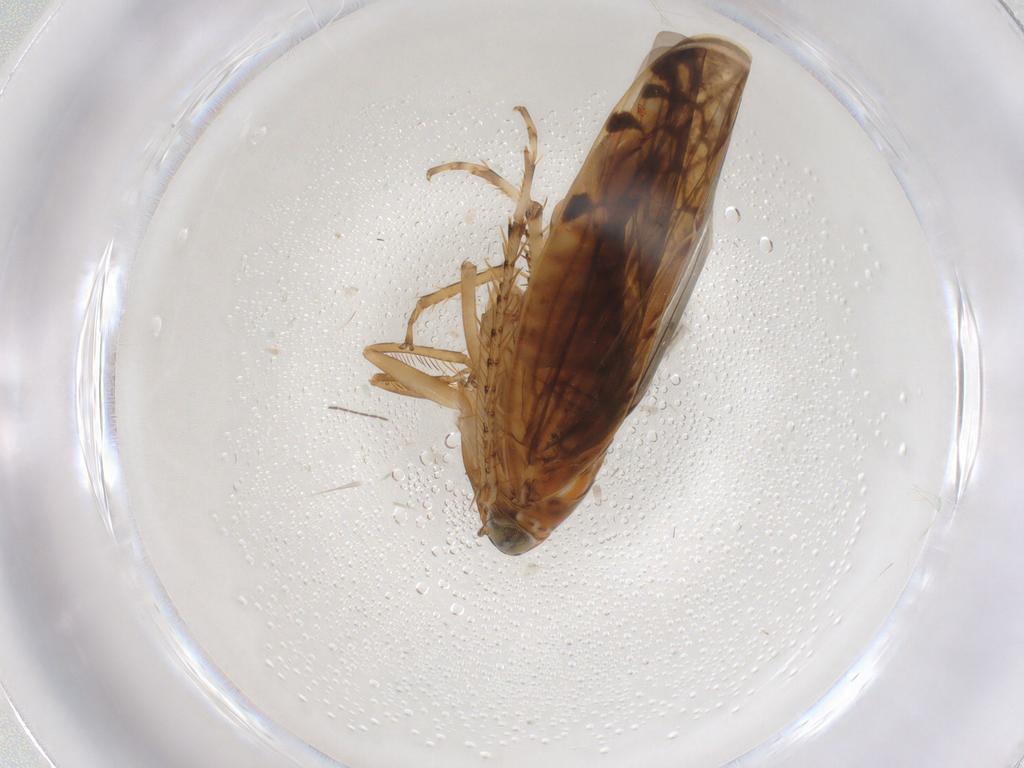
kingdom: Animalia
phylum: Arthropoda
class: Insecta
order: Hemiptera
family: Cicadellidae
